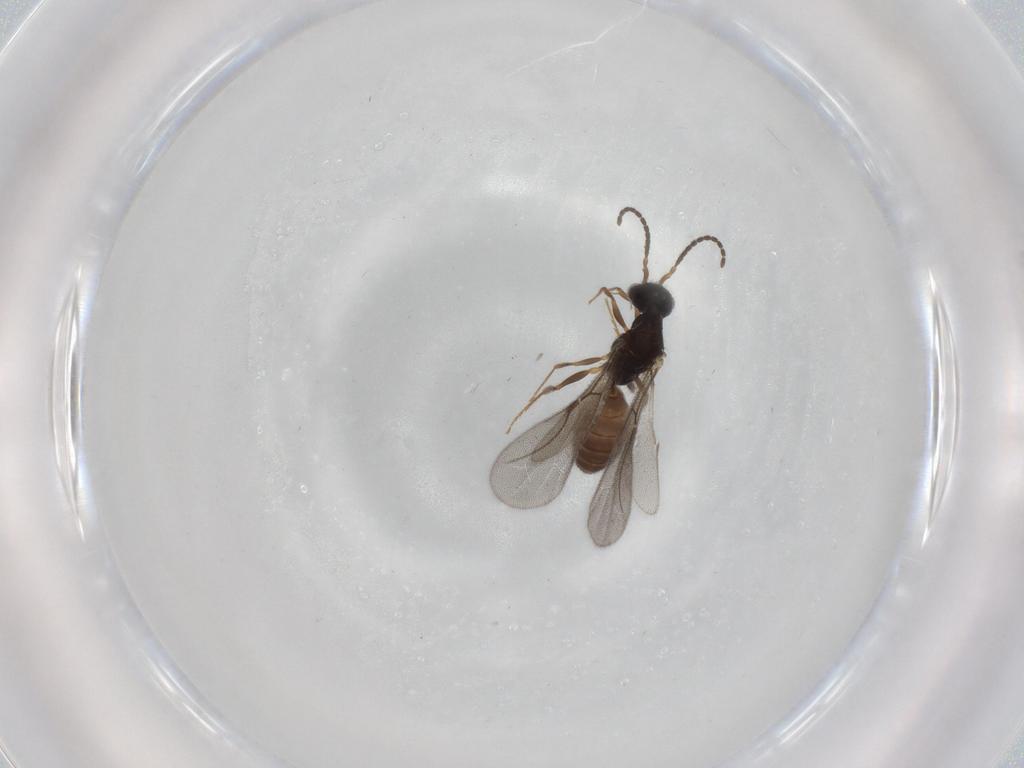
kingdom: Animalia
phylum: Arthropoda
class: Insecta
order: Hymenoptera
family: Bethylidae
